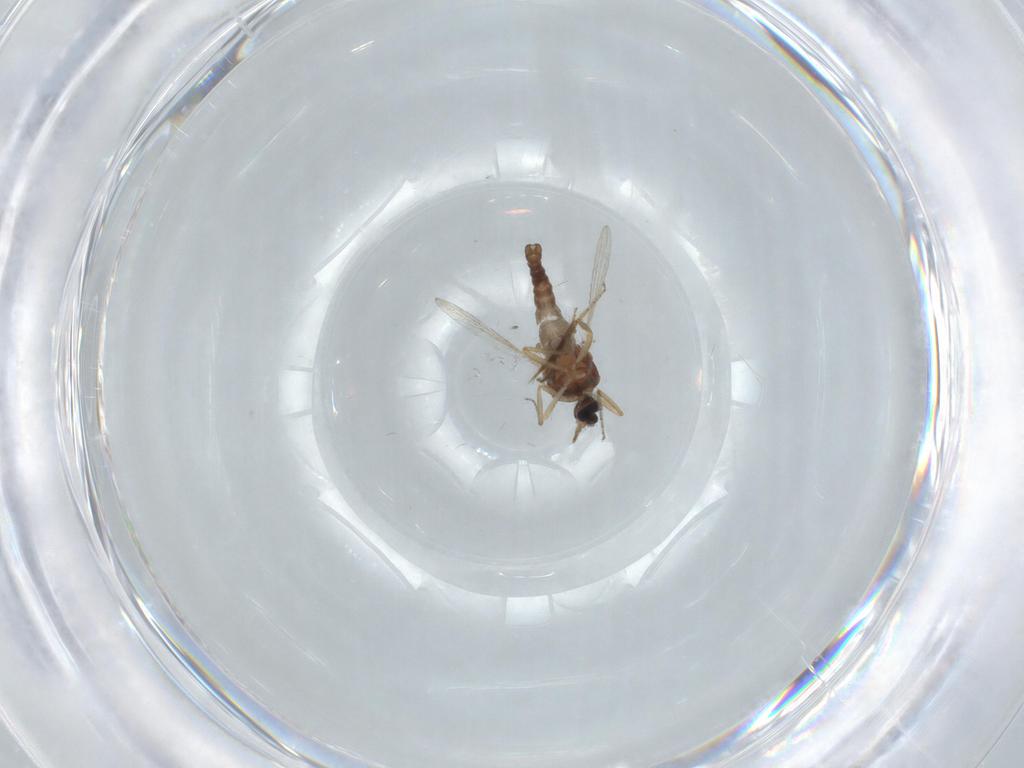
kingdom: Animalia
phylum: Arthropoda
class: Insecta
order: Diptera
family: Ceratopogonidae
